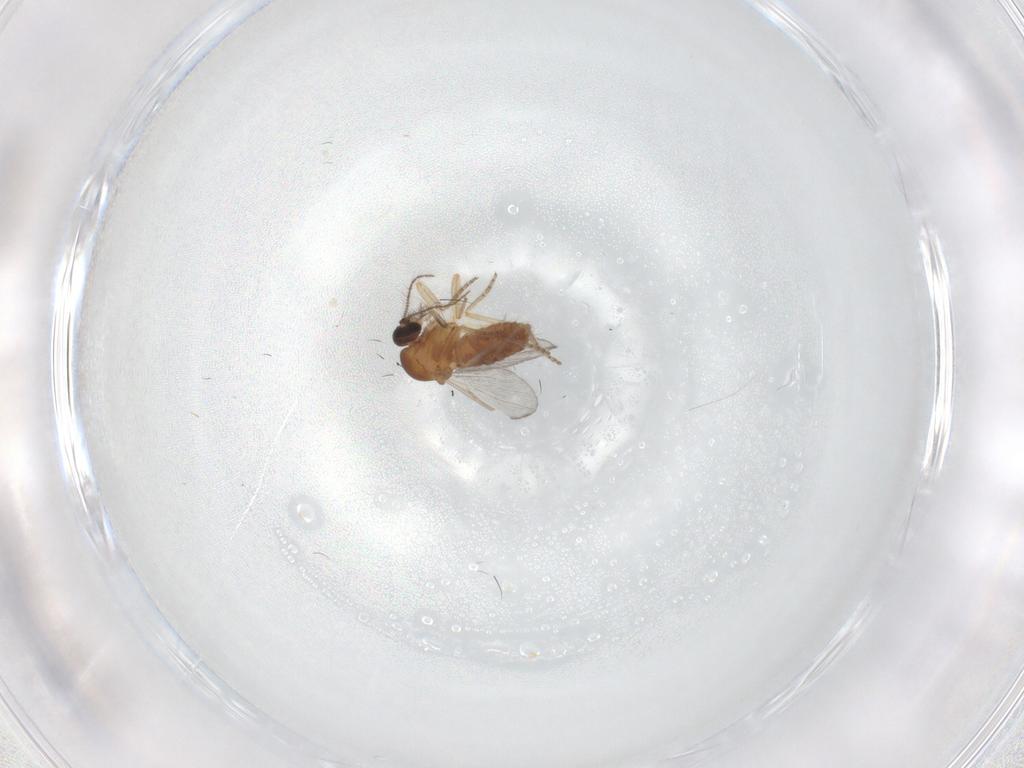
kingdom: Animalia
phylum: Arthropoda
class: Insecta
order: Diptera
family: Ceratopogonidae
